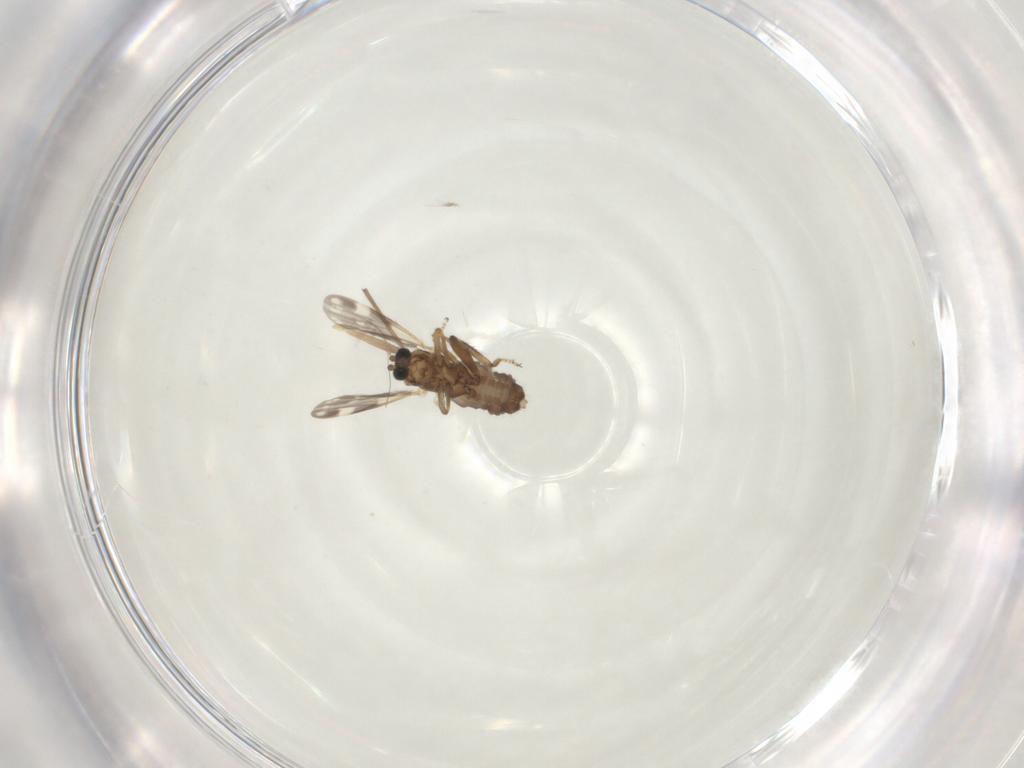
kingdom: Animalia
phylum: Arthropoda
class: Insecta
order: Diptera
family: Ceratopogonidae
